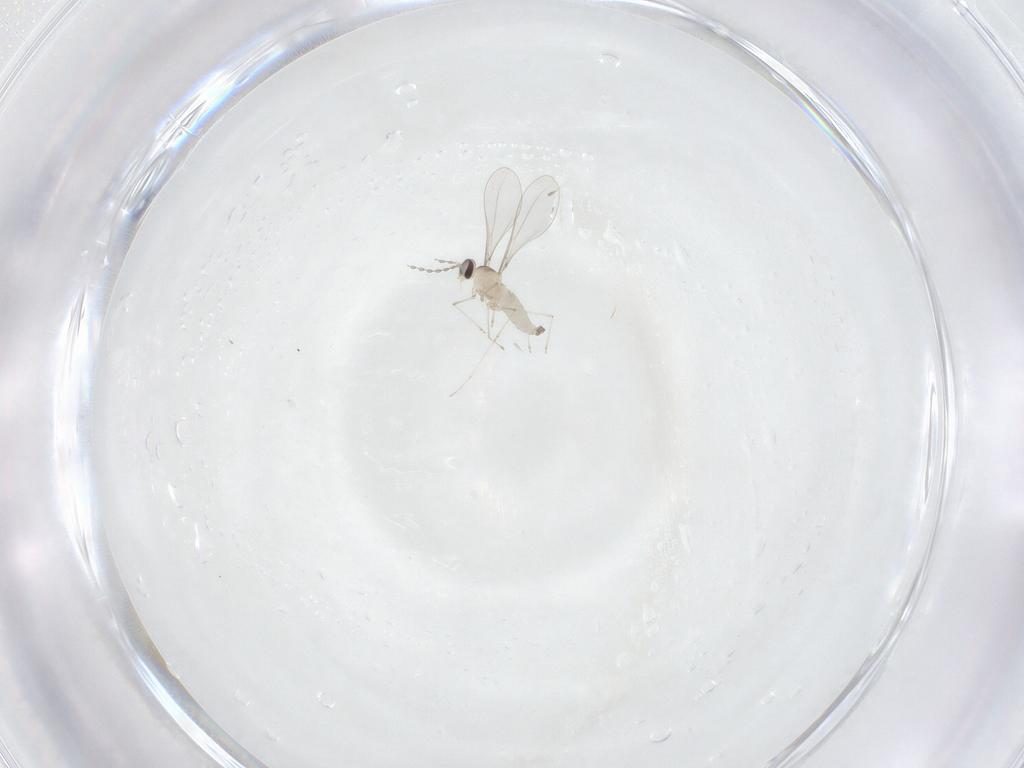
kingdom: Animalia
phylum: Arthropoda
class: Insecta
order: Diptera
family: Cecidomyiidae
